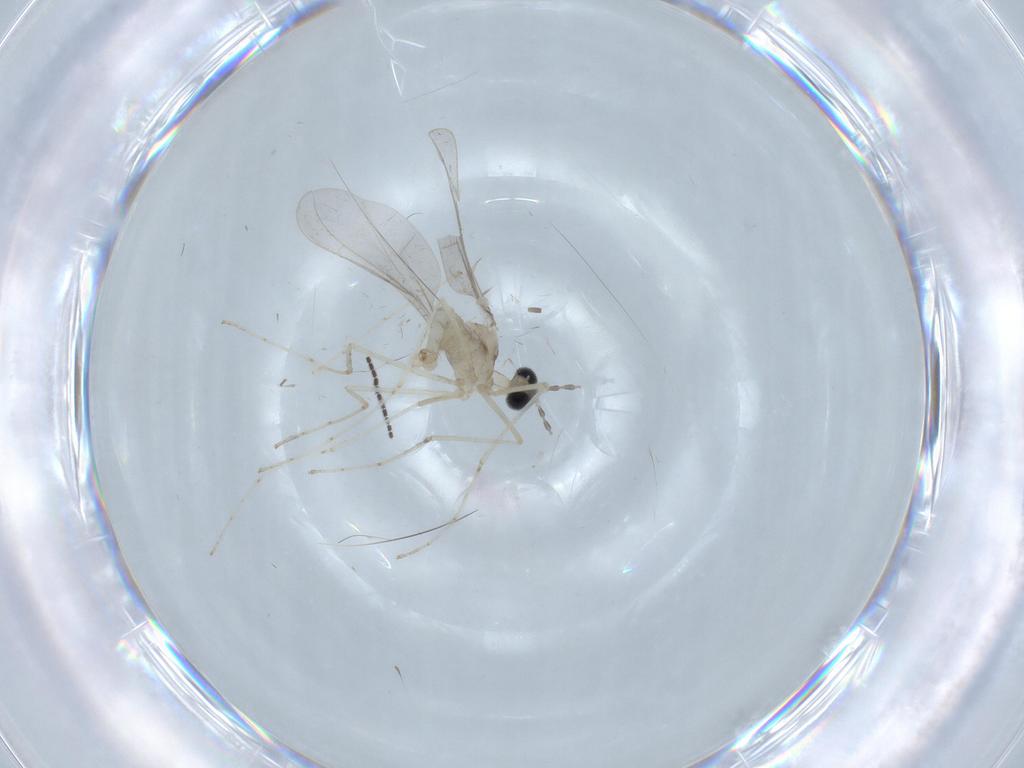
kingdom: Animalia
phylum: Arthropoda
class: Insecta
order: Diptera
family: Cecidomyiidae
